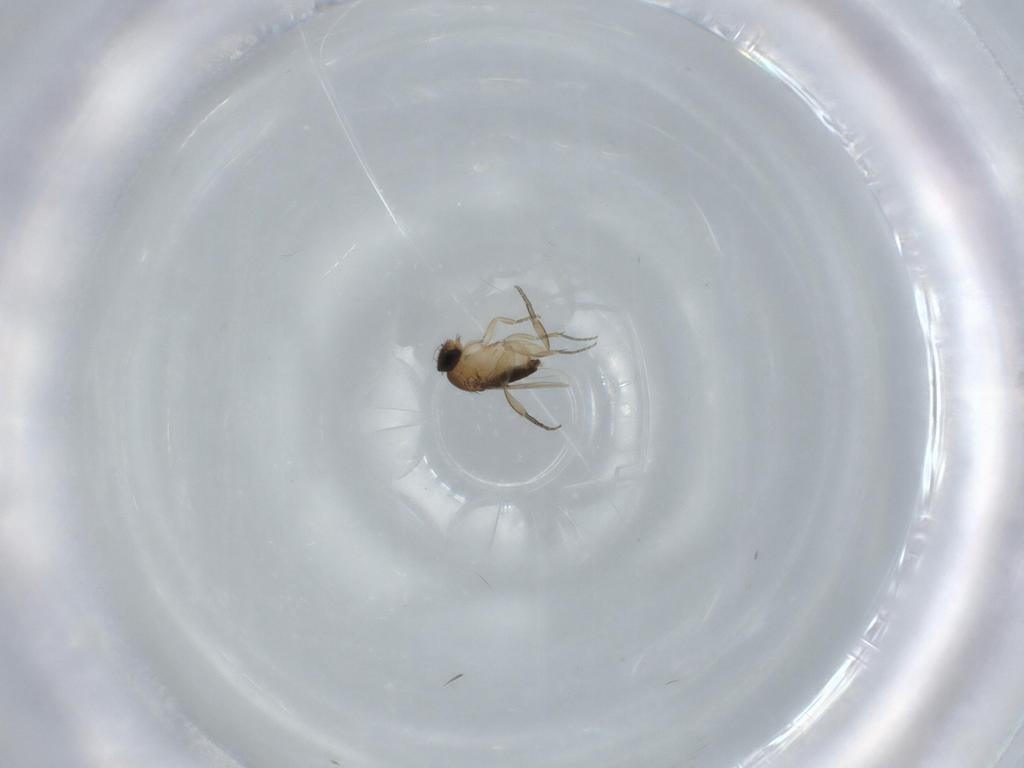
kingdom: Animalia
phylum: Arthropoda
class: Insecta
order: Diptera
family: Phoridae
